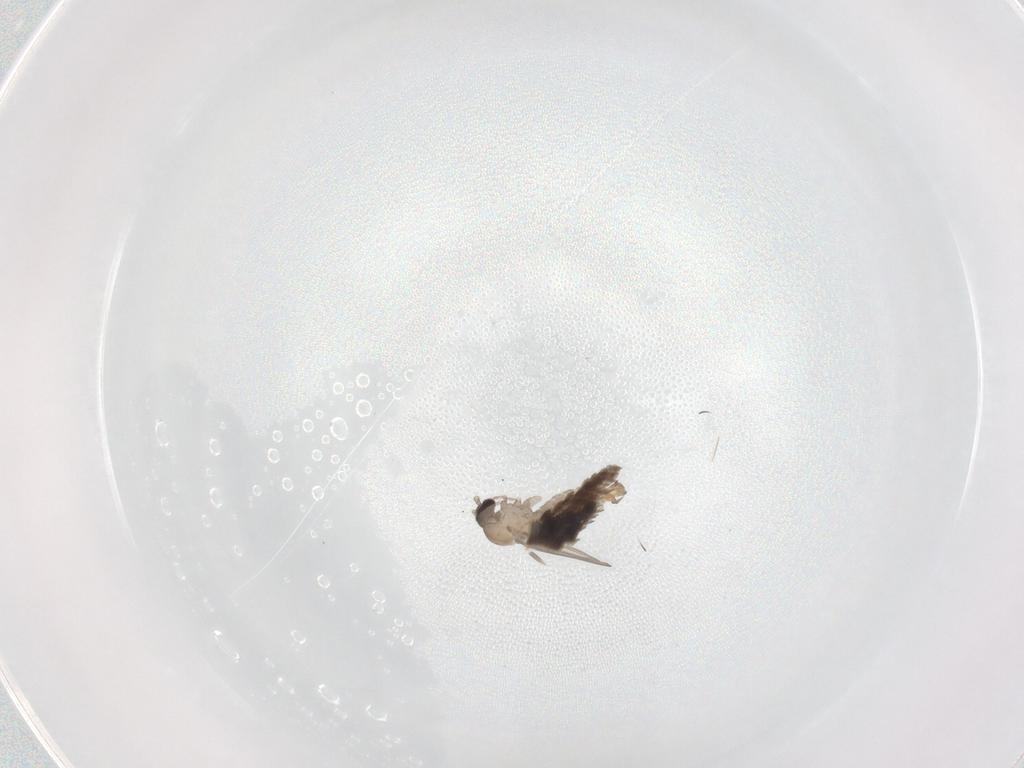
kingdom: Animalia
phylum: Arthropoda
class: Insecta
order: Diptera
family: Psychodidae
